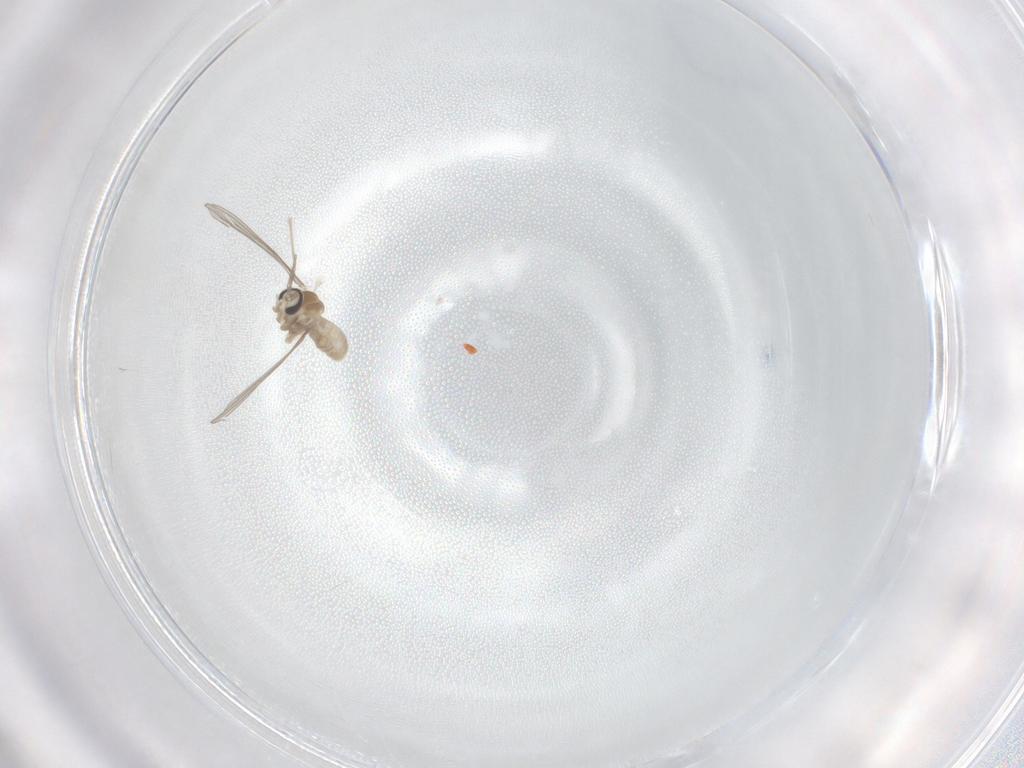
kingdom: Animalia
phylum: Arthropoda
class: Insecta
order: Diptera
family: Cecidomyiidae
